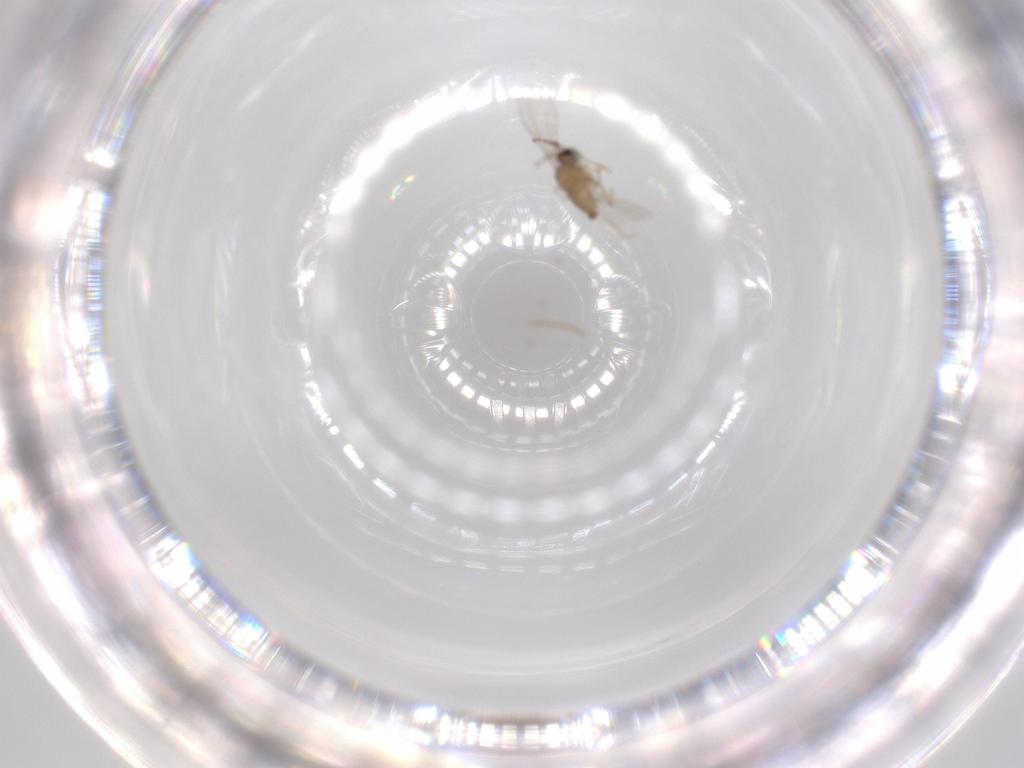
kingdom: Animalia
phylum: Arthropoda
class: Insecta
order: Diptera
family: Cecidomyiidae
